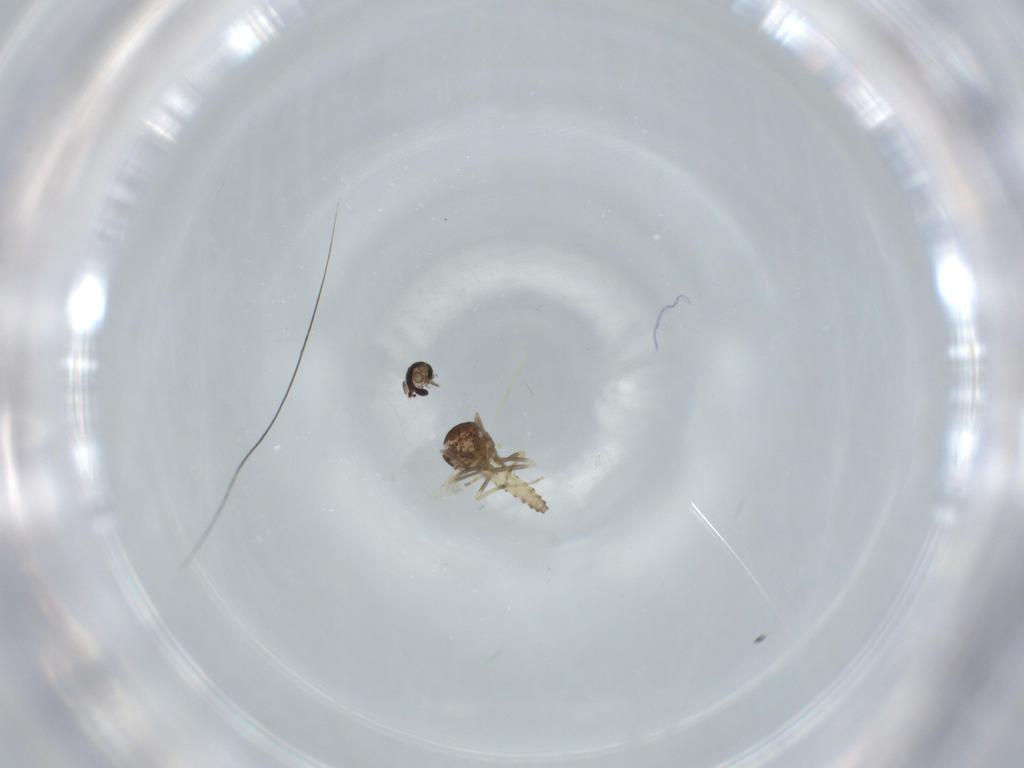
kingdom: Animalia
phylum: Arthropoda
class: Insecta
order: Diptera
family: Ceratopogonidae
